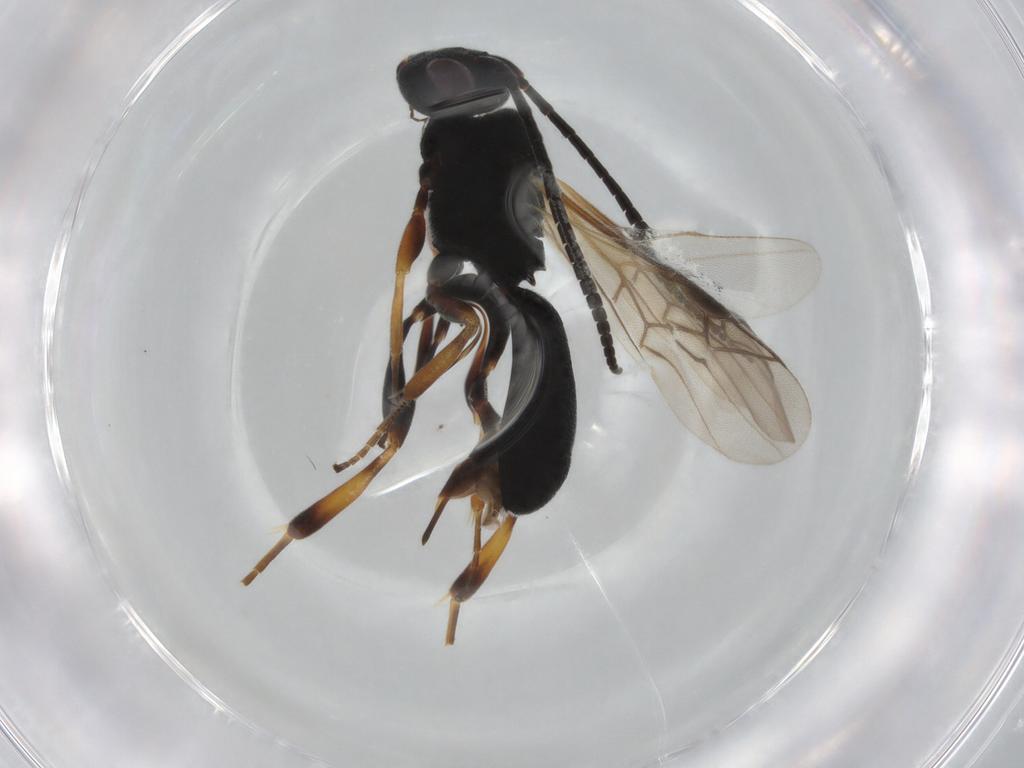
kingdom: Animalia
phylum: Arthropoda
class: Insecta
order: Hymenoptera
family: Braconidae
